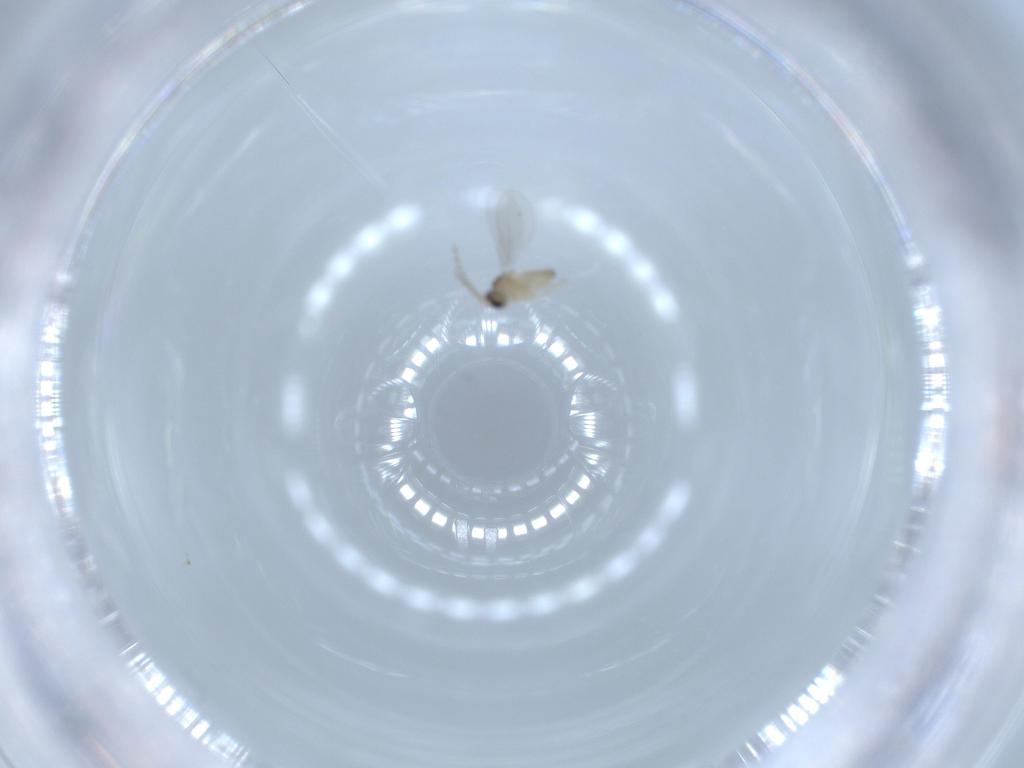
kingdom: Animalia
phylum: Arthropoda
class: Insecta
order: Diptera
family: Cecidomyiidae
